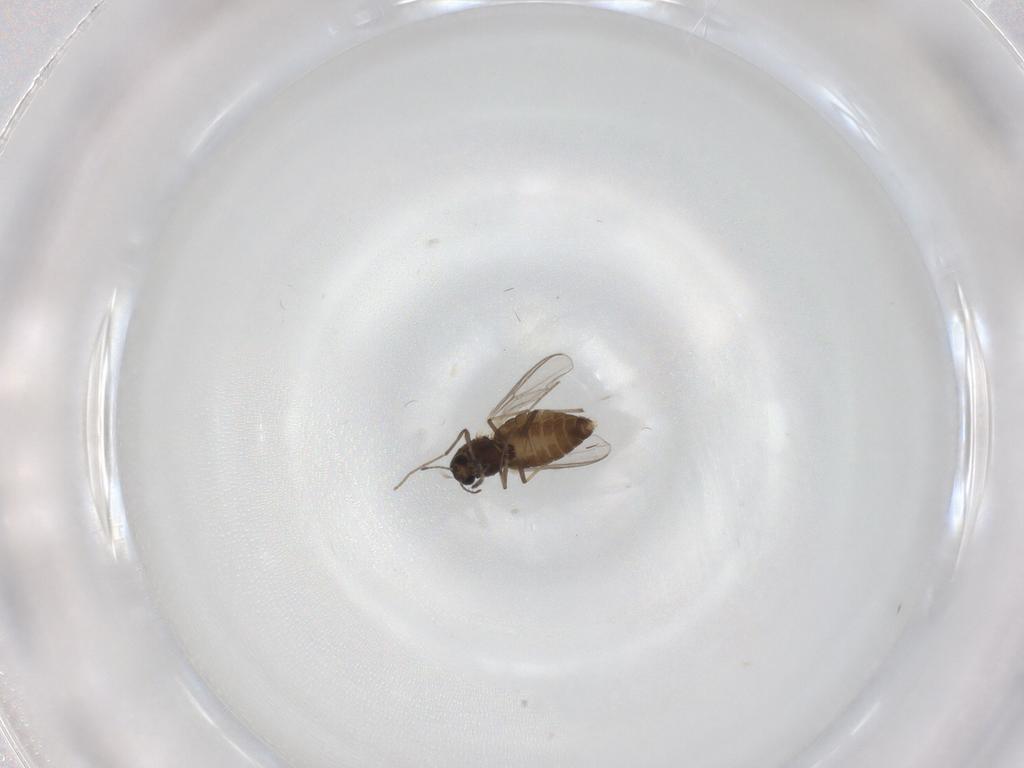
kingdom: Animalia
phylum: Arthropoda
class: Insecta
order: Diptera
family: Chironomidae
